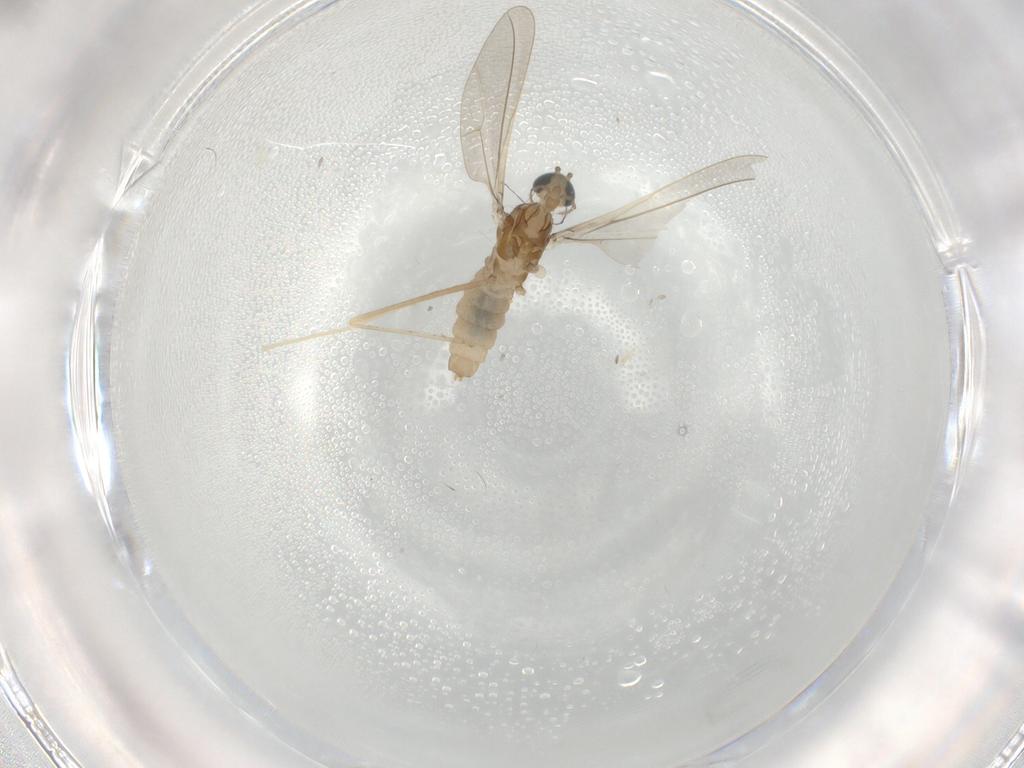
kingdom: Animalia
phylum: Arthropoda
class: Insecta
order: Diptera
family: Cecidomyiidae
